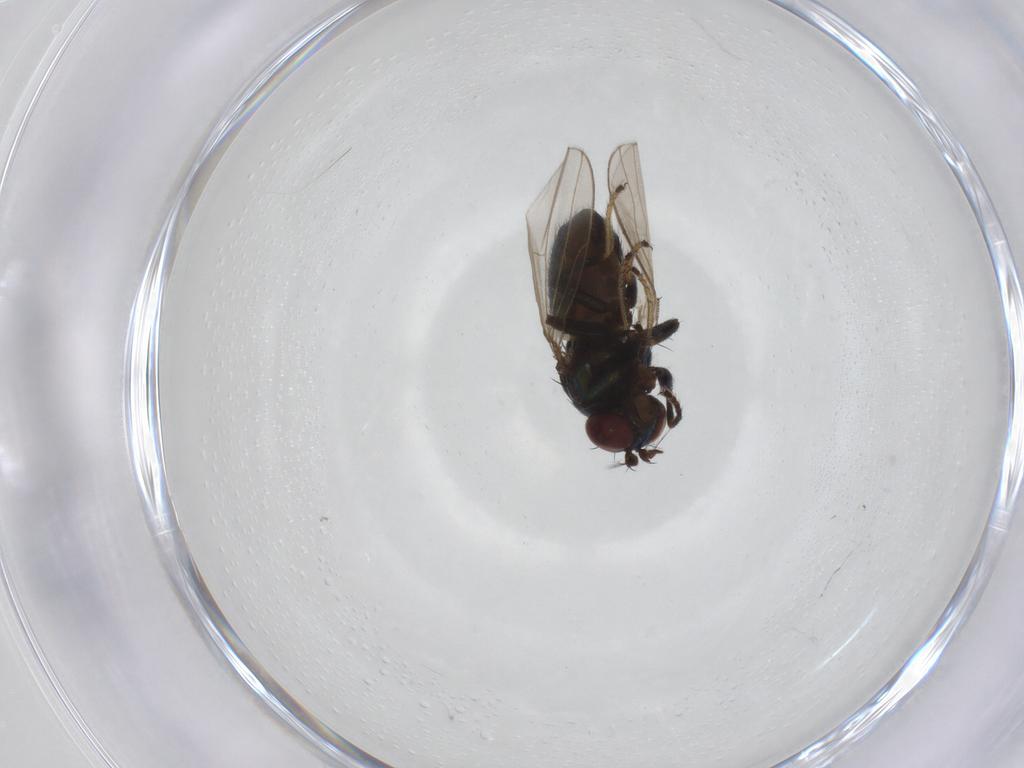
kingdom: Animalia
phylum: Arthropoda
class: Insecta
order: Diptera
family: Ephydridae
